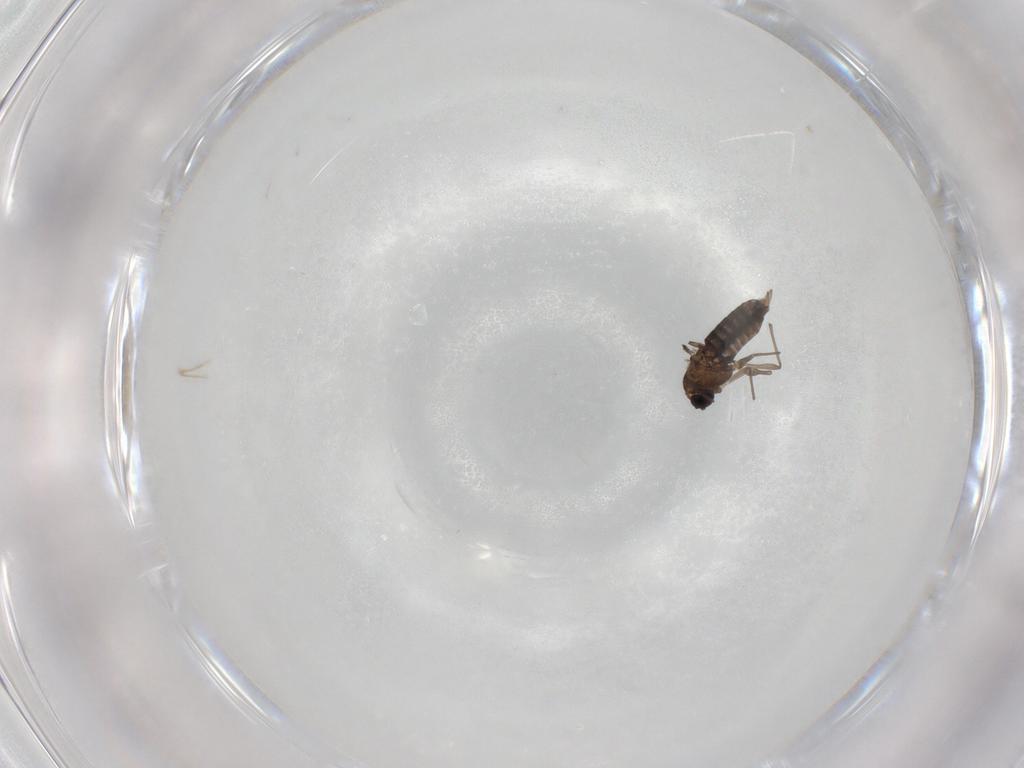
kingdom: Animalia
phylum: Arthropoda
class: Insecta
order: Diptera
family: Chironomidae
